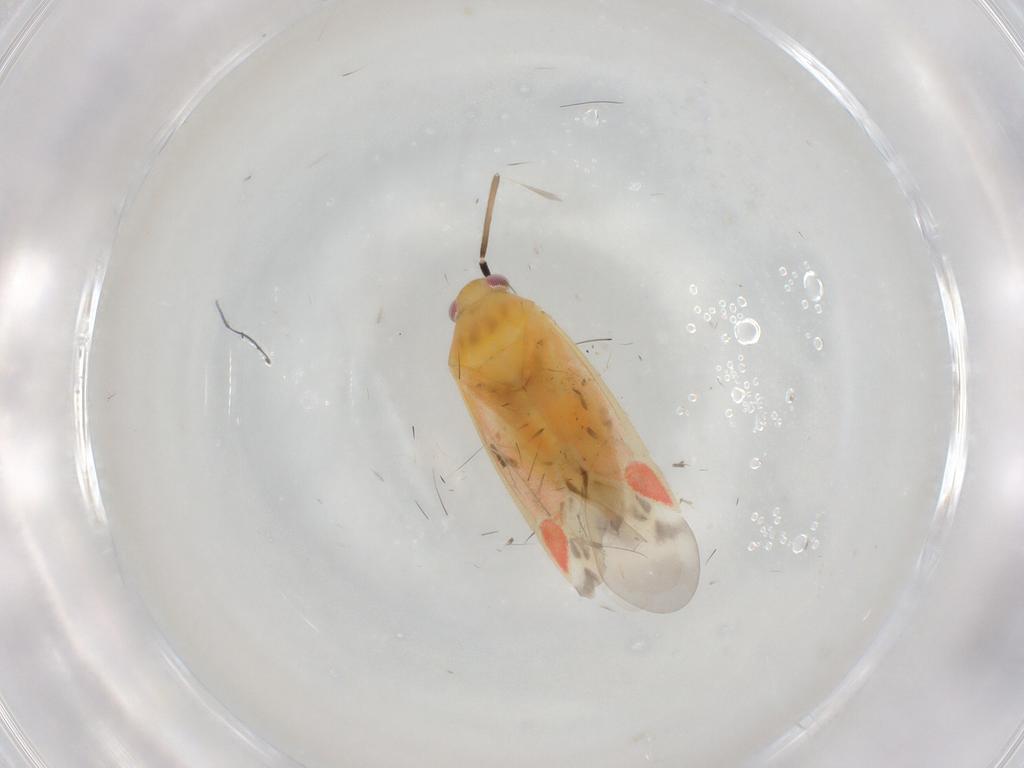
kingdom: Animalia
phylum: Arthropoda
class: Insecta
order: Hemiptera
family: Miridae
